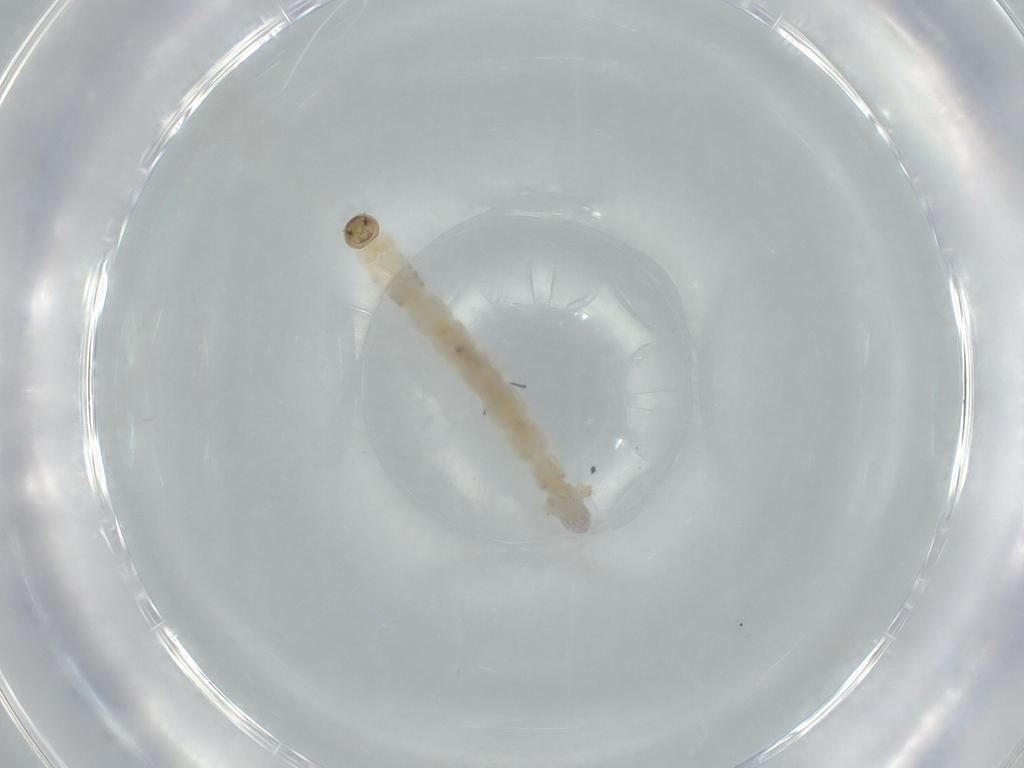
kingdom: Animalia
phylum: Arthropoda
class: Insecta
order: Diptera
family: Chironomidae
